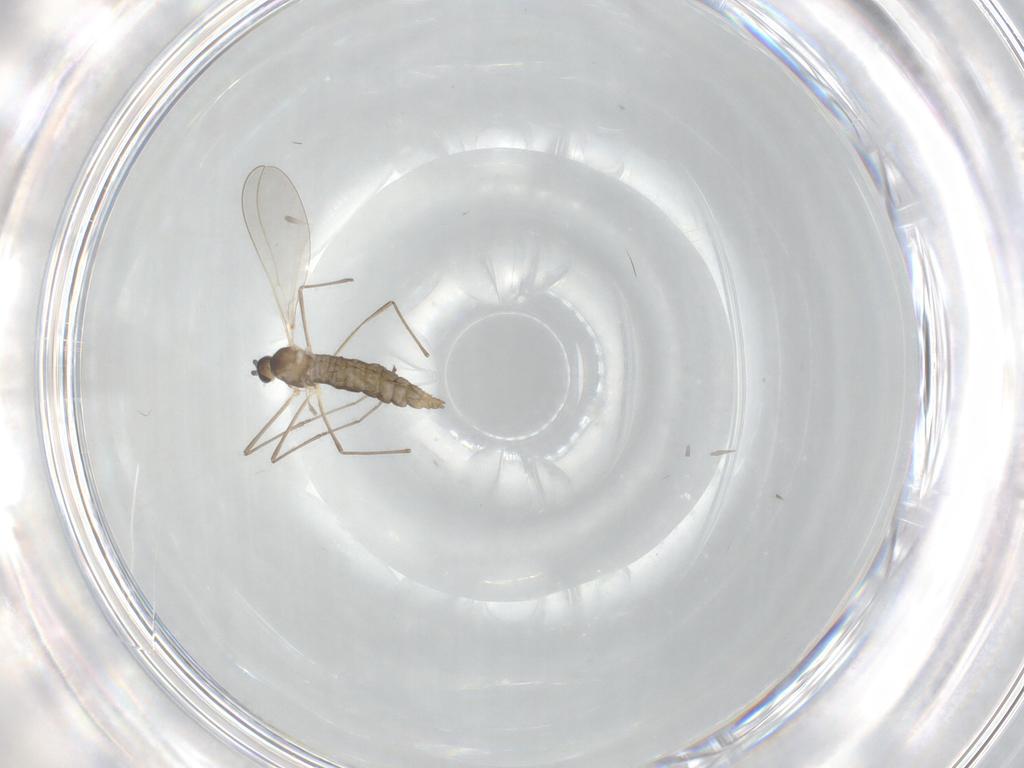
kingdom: Animalia
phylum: Arthropoda
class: Insecta
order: Diptera
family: Cecidomyiidae
